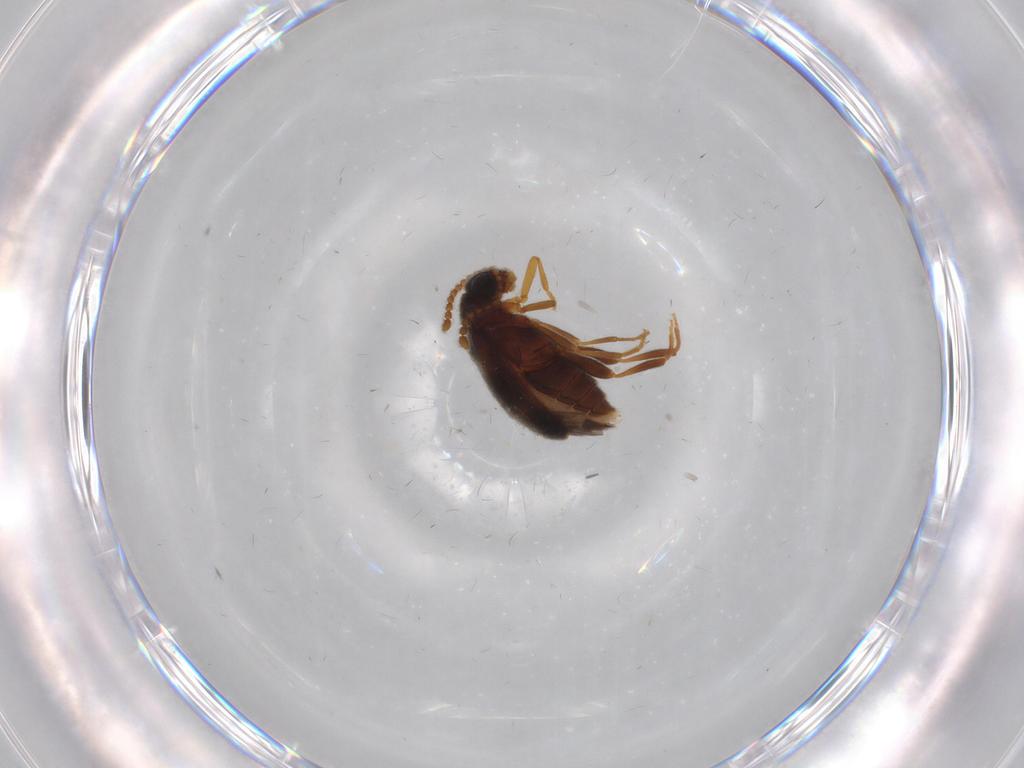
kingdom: Animalia
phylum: Arthropoda
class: Insecta
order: Coleoptera
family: Aderidae
